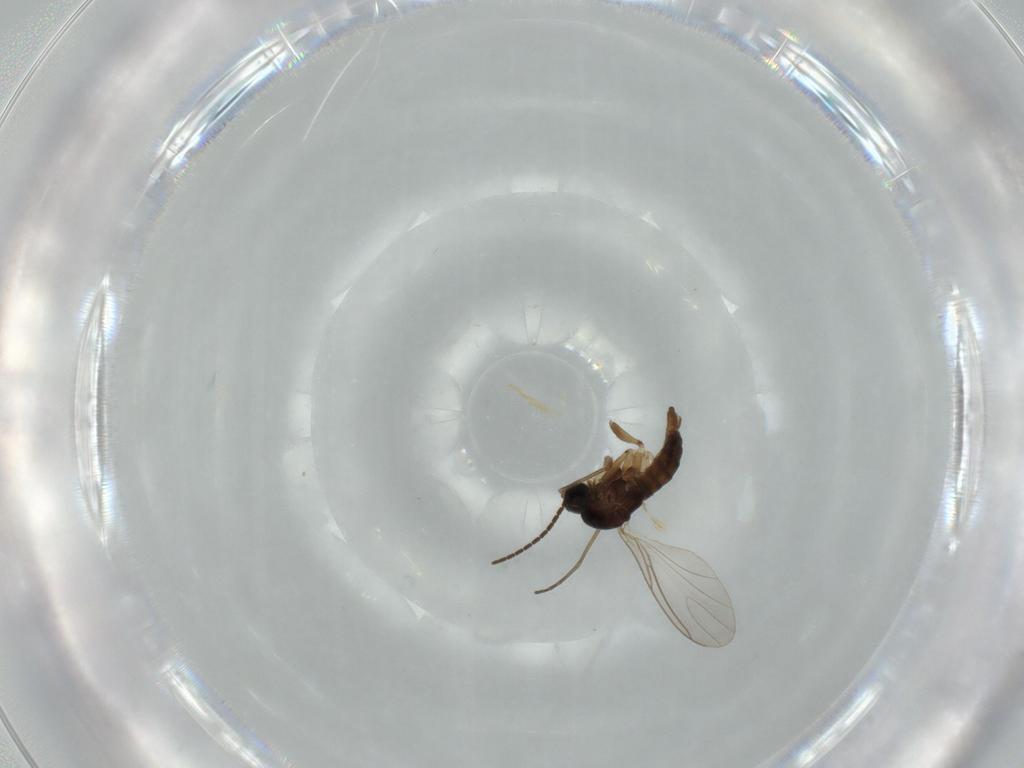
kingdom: Animalia
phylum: Arthropoda
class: Insecta
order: Diptera
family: Sciaridae
